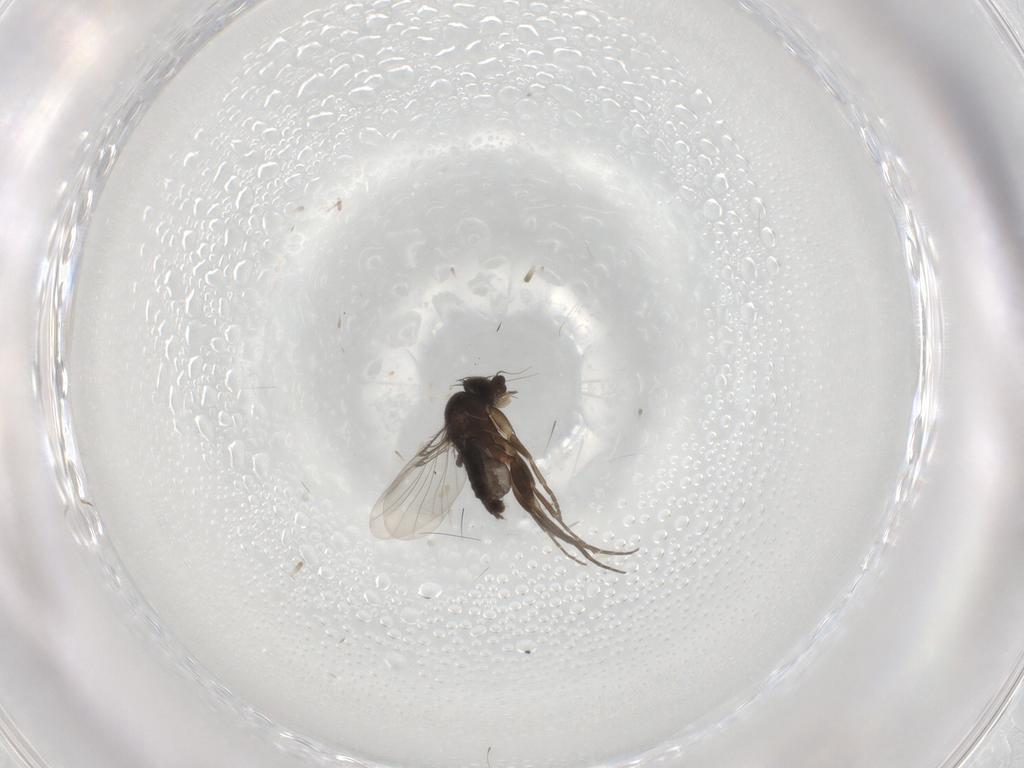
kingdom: Animalia
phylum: Arthropoda
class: Insecta
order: Diptera
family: Phoridae
